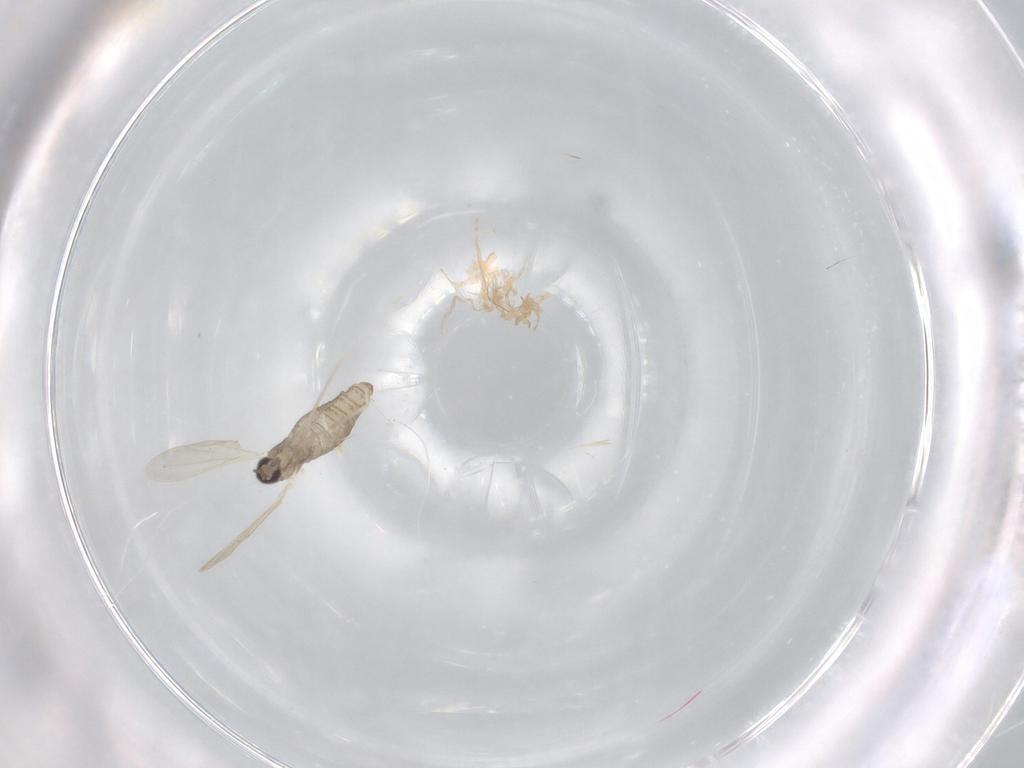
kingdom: Animalia
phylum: Arthropoda
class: Insecta
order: Diptera
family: Cecidomyiidae
